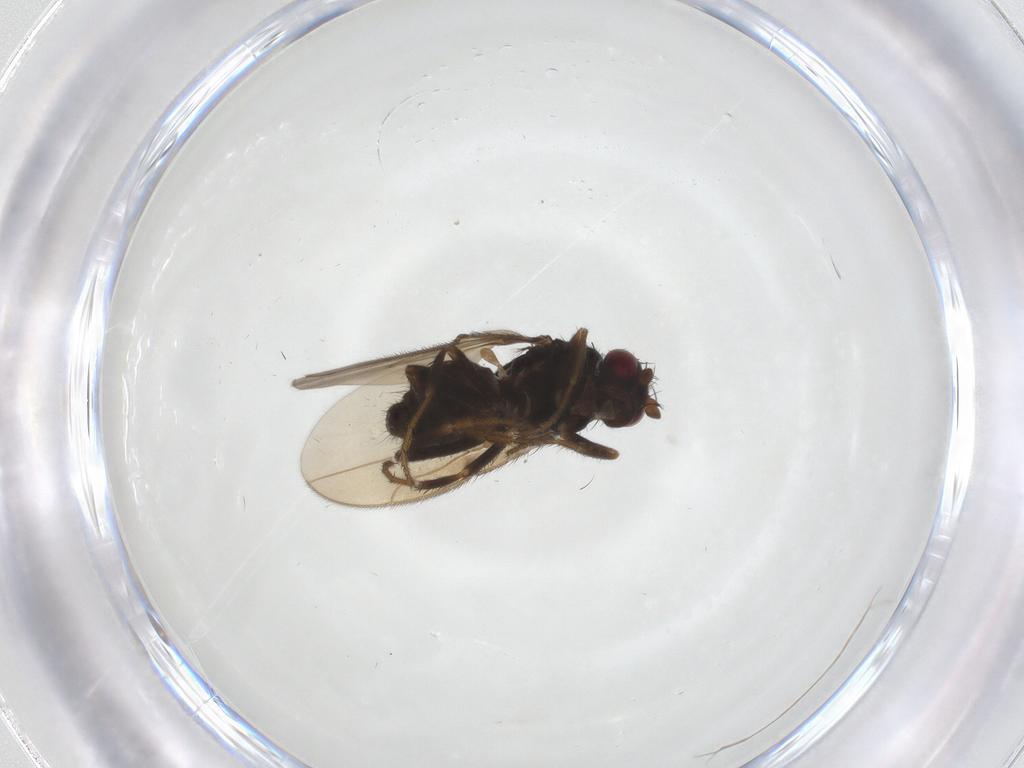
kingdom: Animalia
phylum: Arthropoda
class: Insecta
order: Diptera
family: Sphaeroceridae
